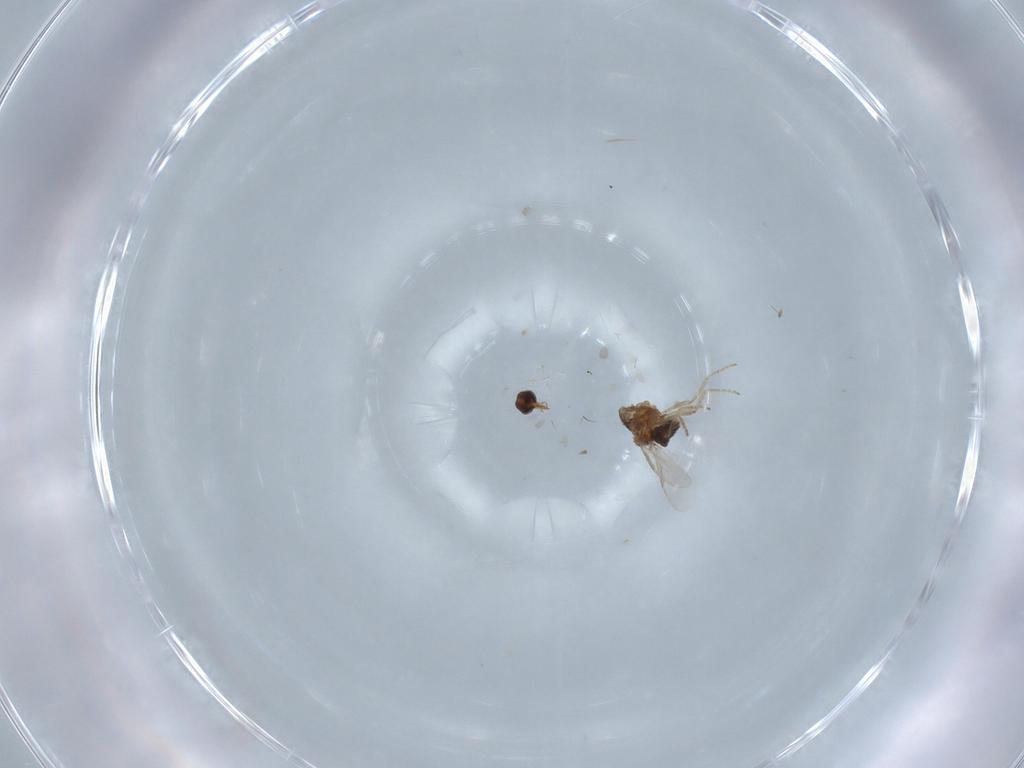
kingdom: Animalia
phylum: Arthropoda
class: Insecta
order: Diptera
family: Ceratopogonidae
